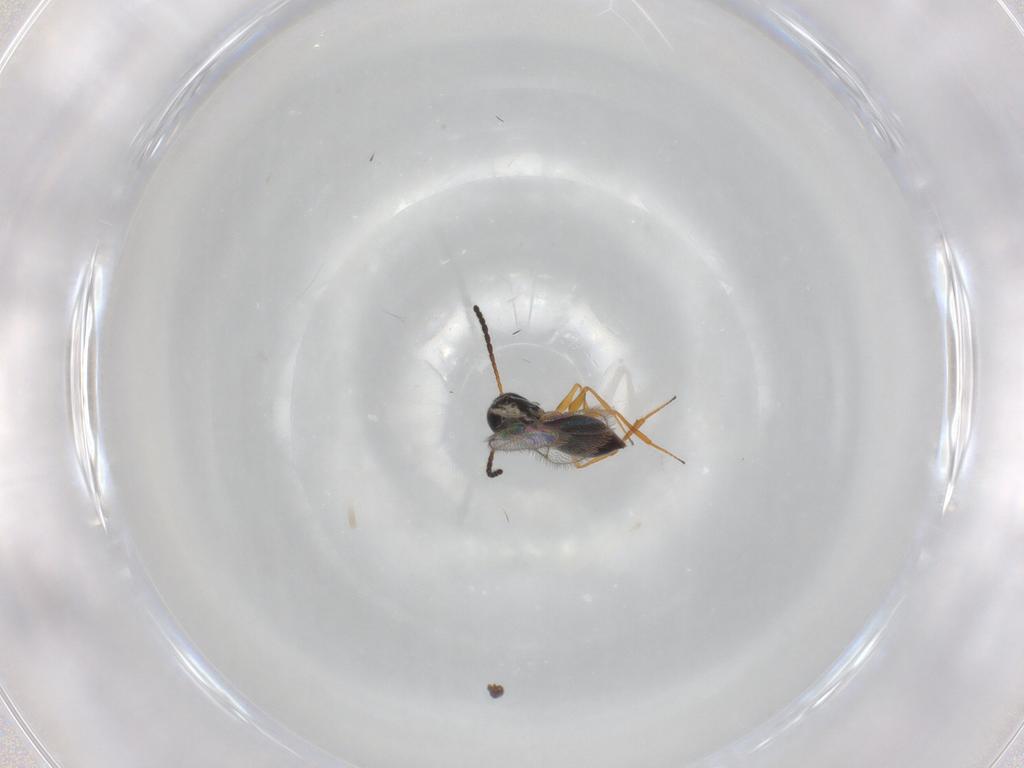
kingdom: Animalia
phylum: Arthropoda
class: Insecta
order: Hymenoptera
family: Figitidae
